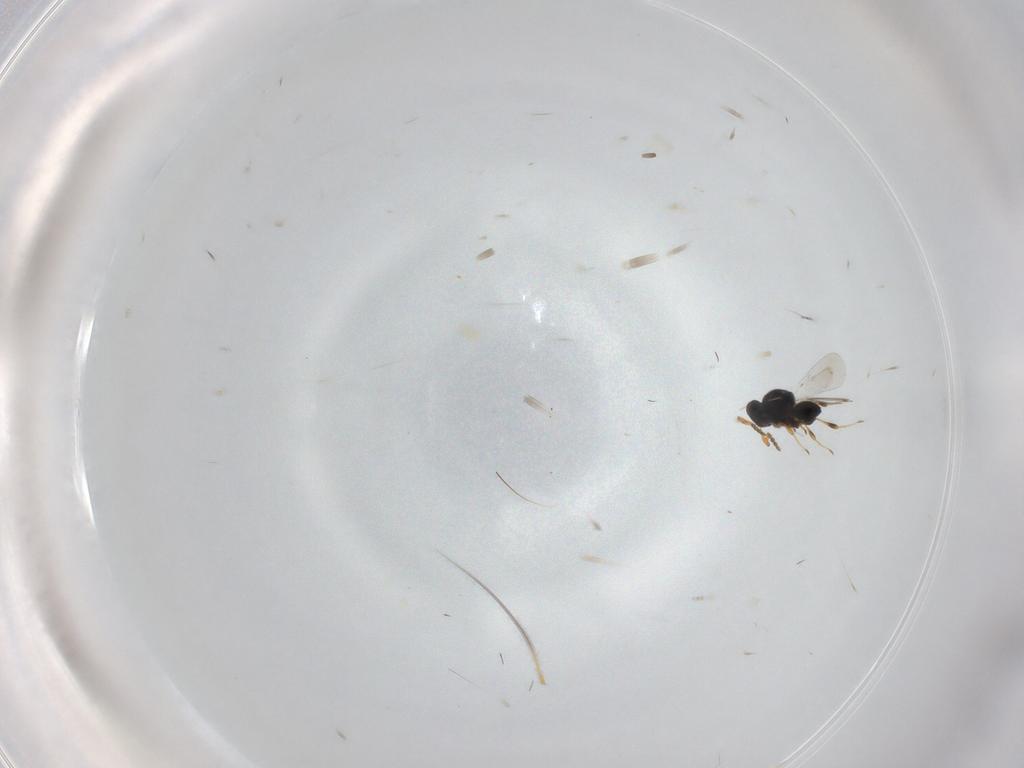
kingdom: Animalia
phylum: Arthropoda
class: Insecta
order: Hymenoptera
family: Platygastridae
